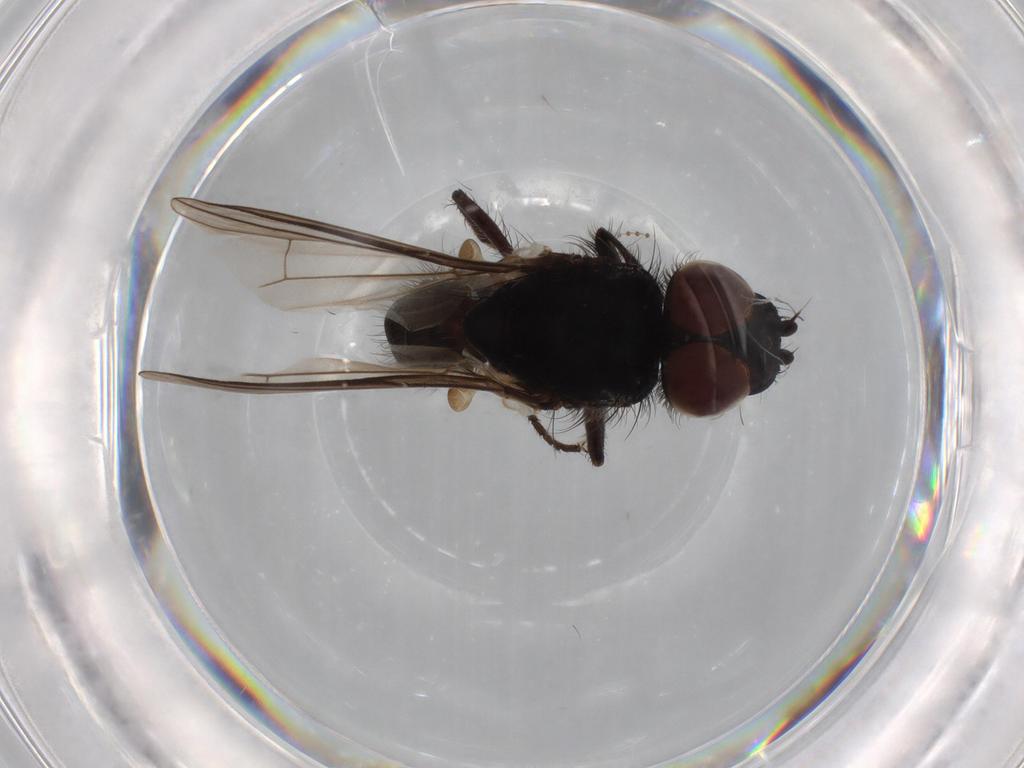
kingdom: Animalia
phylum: Arthropoda
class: Insecta
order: Diptera
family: Anthomyiidae
